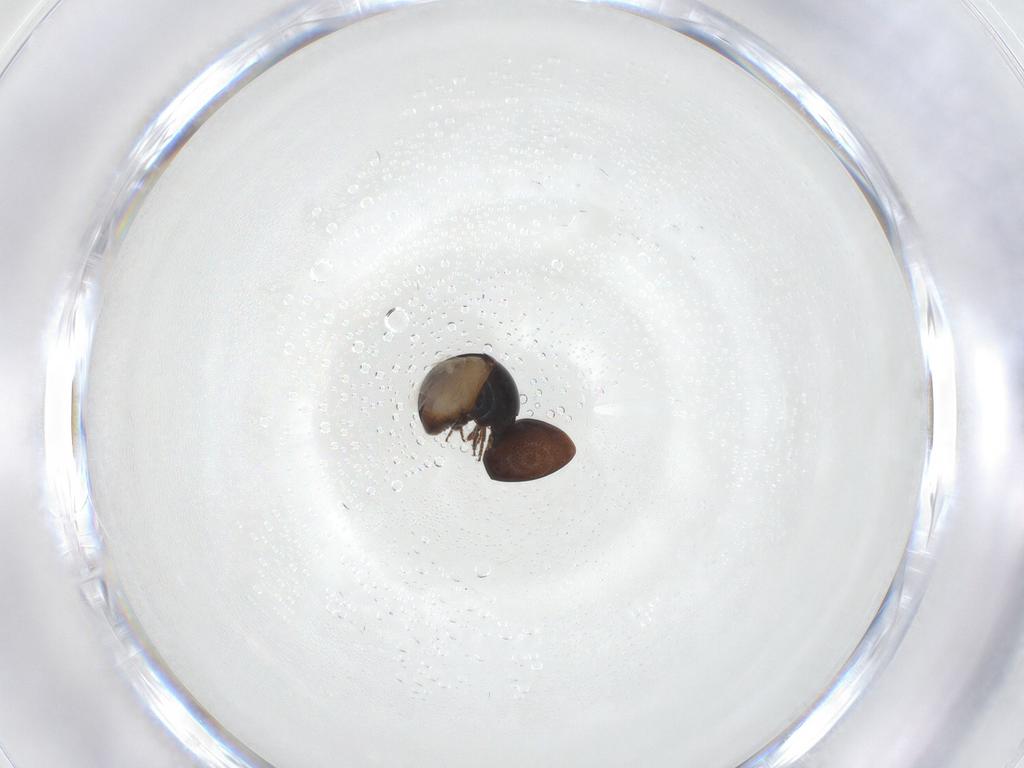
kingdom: Animalia
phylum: Arthropoda
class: Insecta
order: Coleoptera
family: Cybocephalidae
